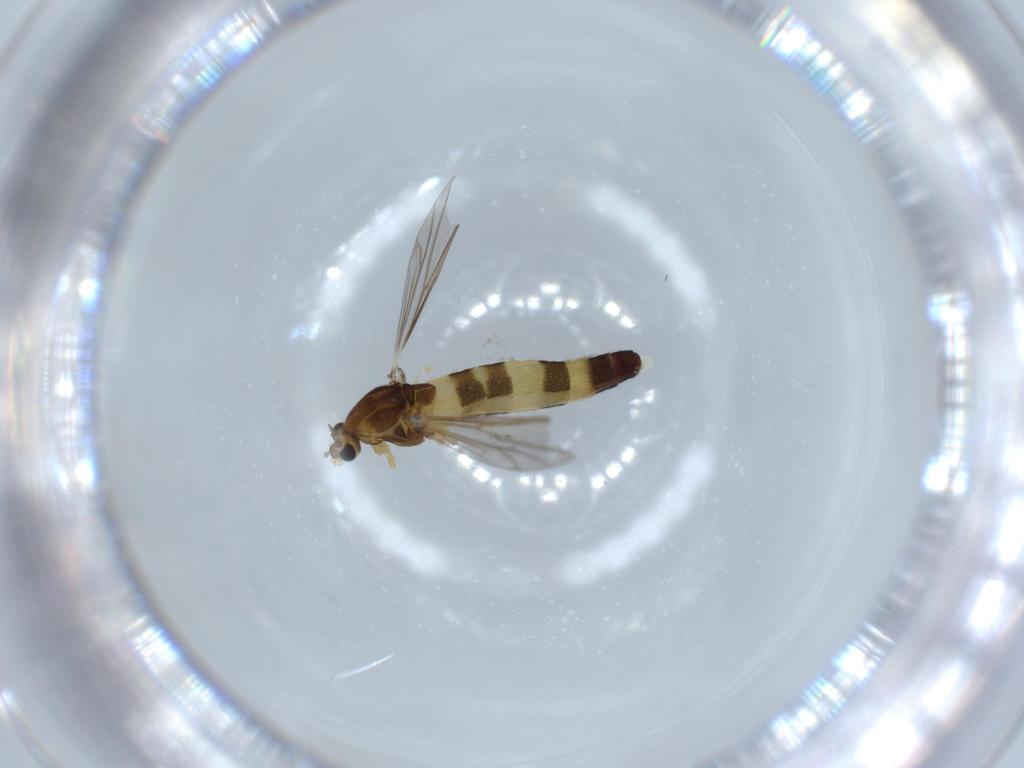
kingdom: Animalia
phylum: Arthropoda
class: Insecta
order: Diptera
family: Chironomidae
